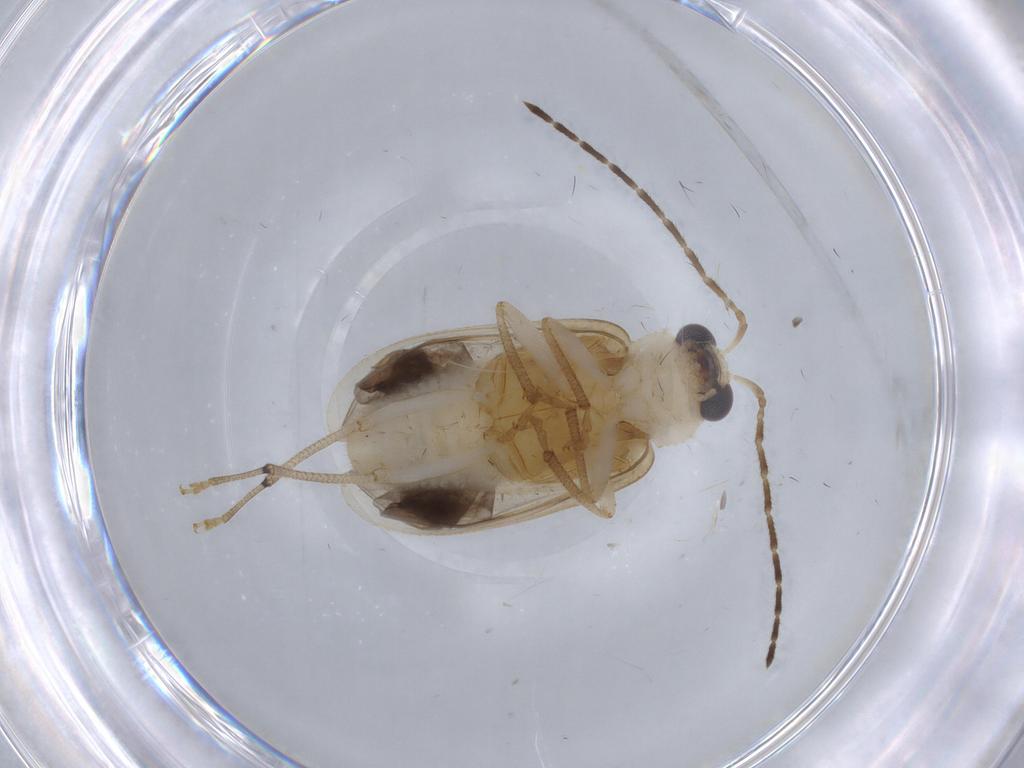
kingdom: Animalia
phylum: Arthropoda
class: Insecta
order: Coleoptera
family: Chrysomelidae
